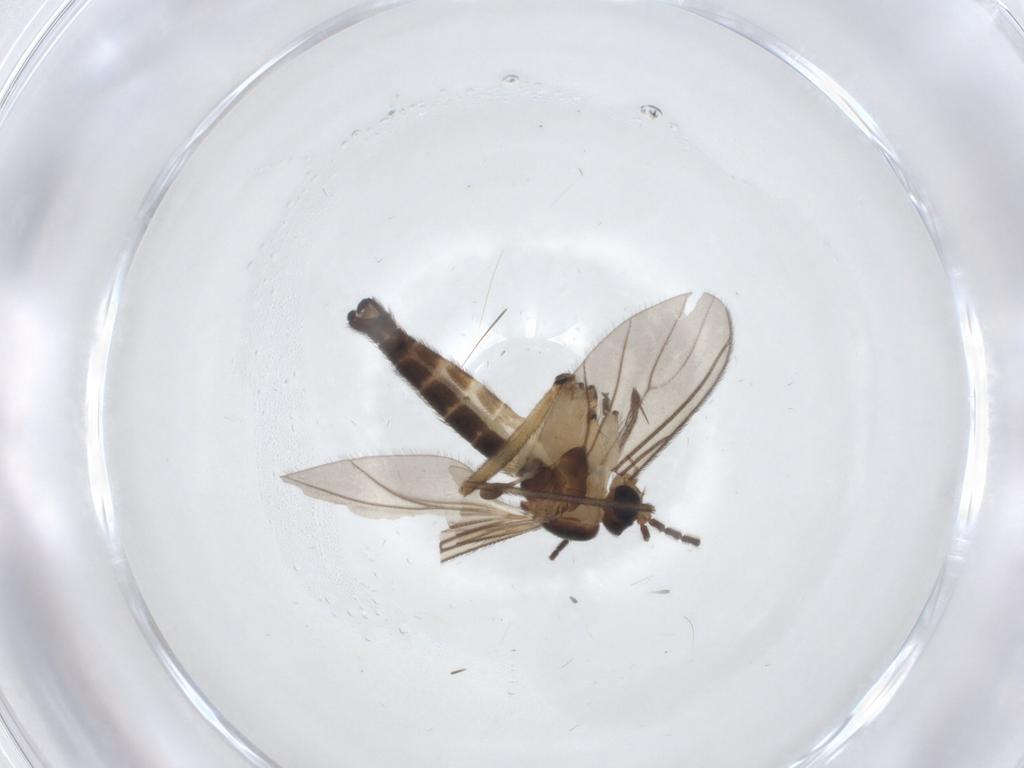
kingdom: Animalia
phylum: Arthropoda
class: Insecta
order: Diptera
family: Sciaridae
